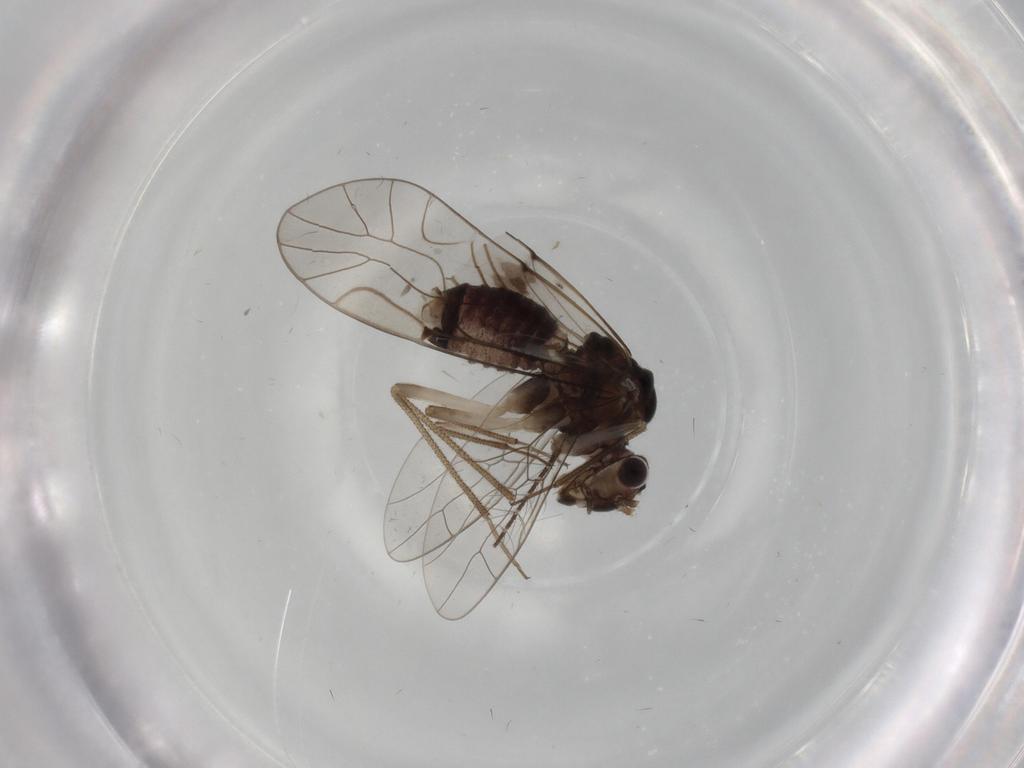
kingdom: Animalia
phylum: Arthropoda
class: Insecta
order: Psocodea
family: Lachesillidae
